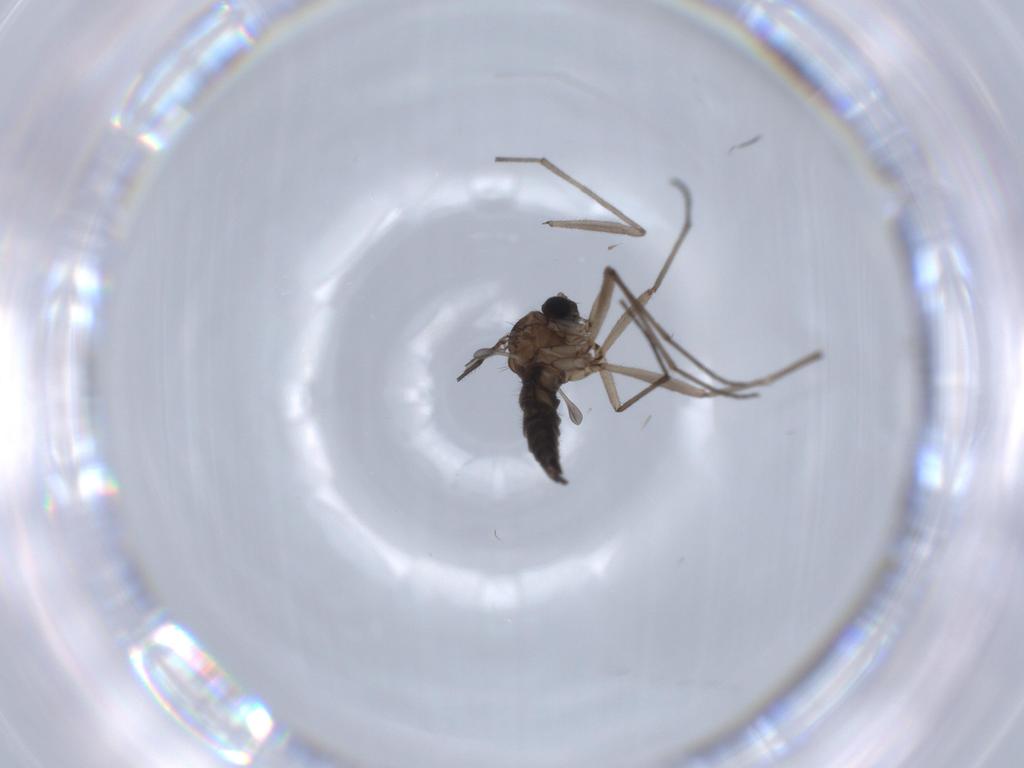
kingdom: Animalia
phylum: Arthropoda
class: Insecta
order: Diptera
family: Sciaridae
